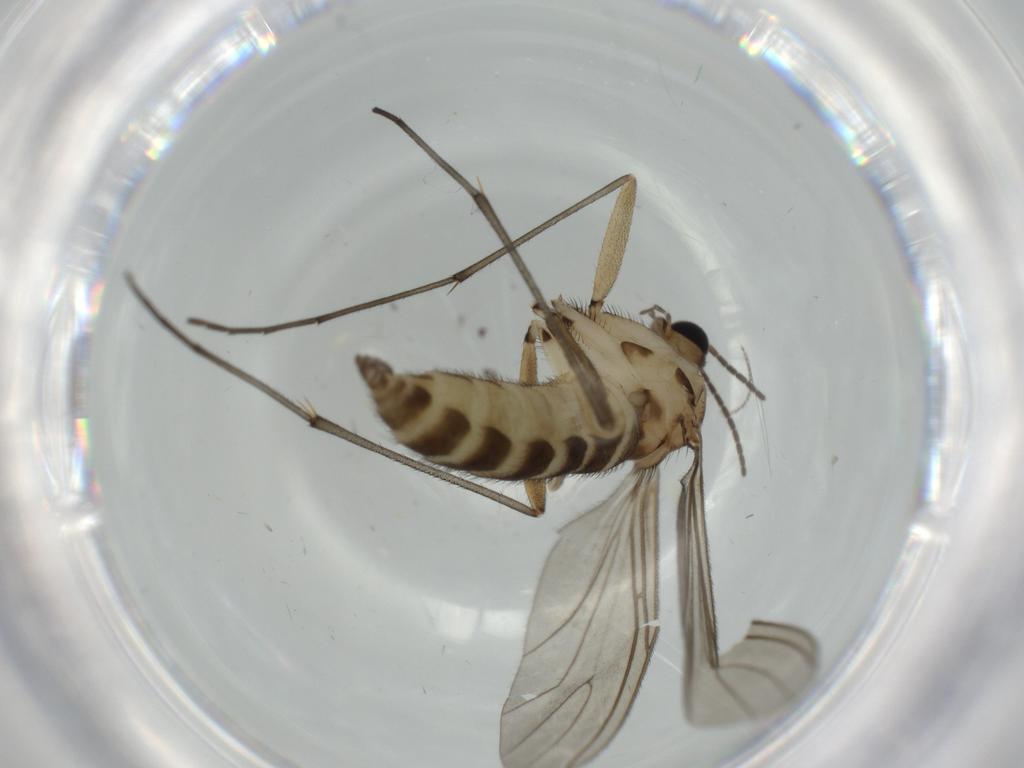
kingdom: Animalia
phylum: Arthropoda
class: Insecta
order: Diptera
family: Sciaridae
